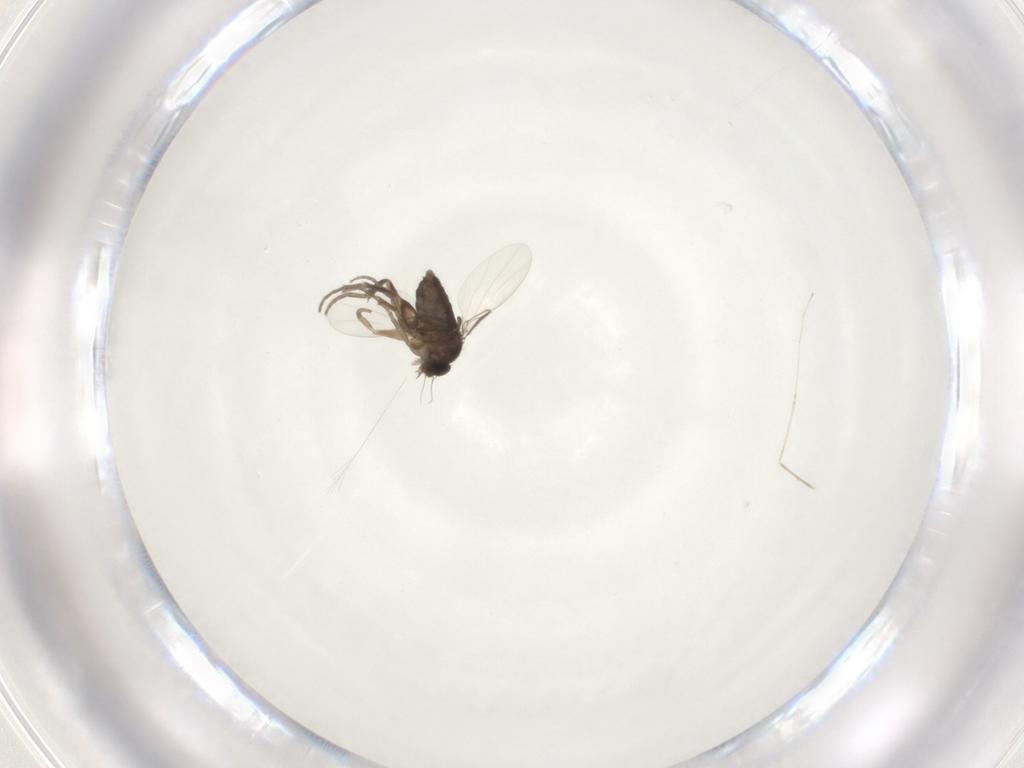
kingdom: Animalia
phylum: Arthropoda
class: Insecta
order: Diptera
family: Phoridae
